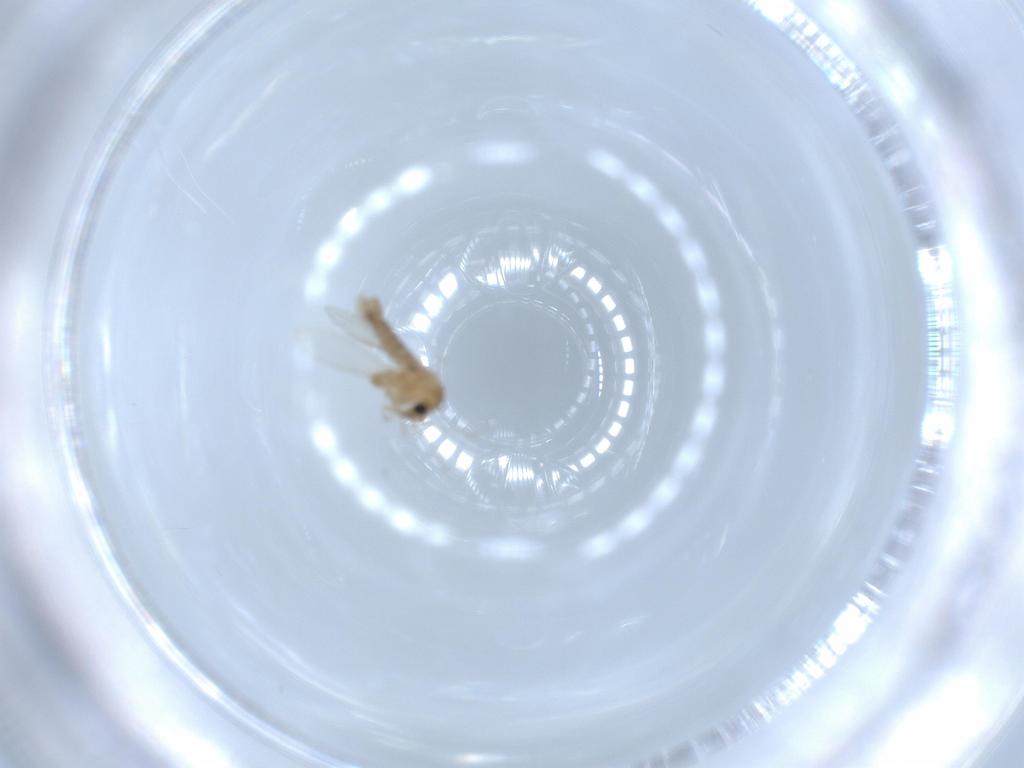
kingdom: Animalia
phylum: Arthropoda
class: Insecta
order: Diptera
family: Psychodidae
